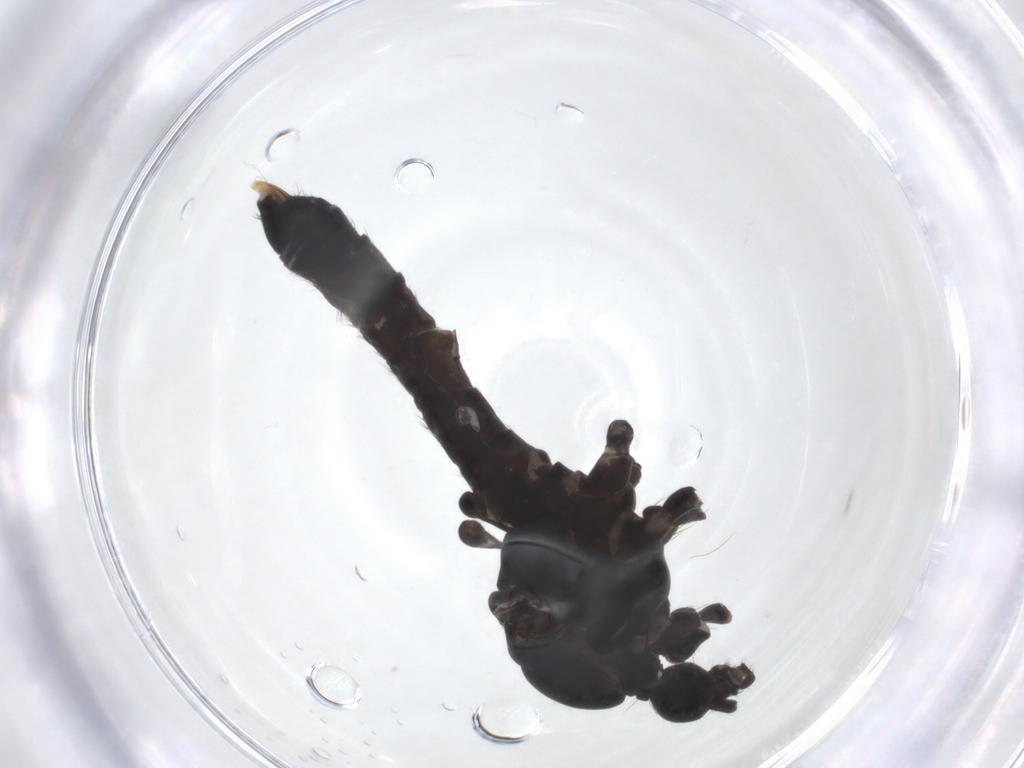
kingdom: Animalia
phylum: Arthropoda
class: Insecta
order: Diptera
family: Limoniidae
